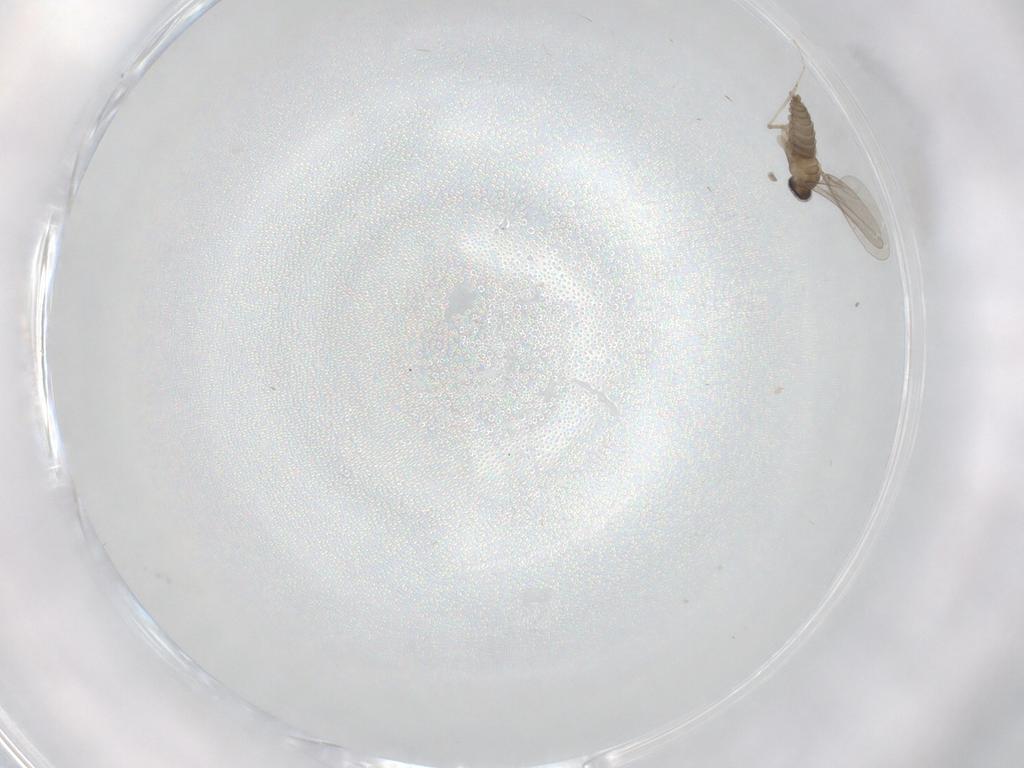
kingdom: Animalia
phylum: Arthropoda
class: Insecta
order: Diptera
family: Cecidomyiidae
